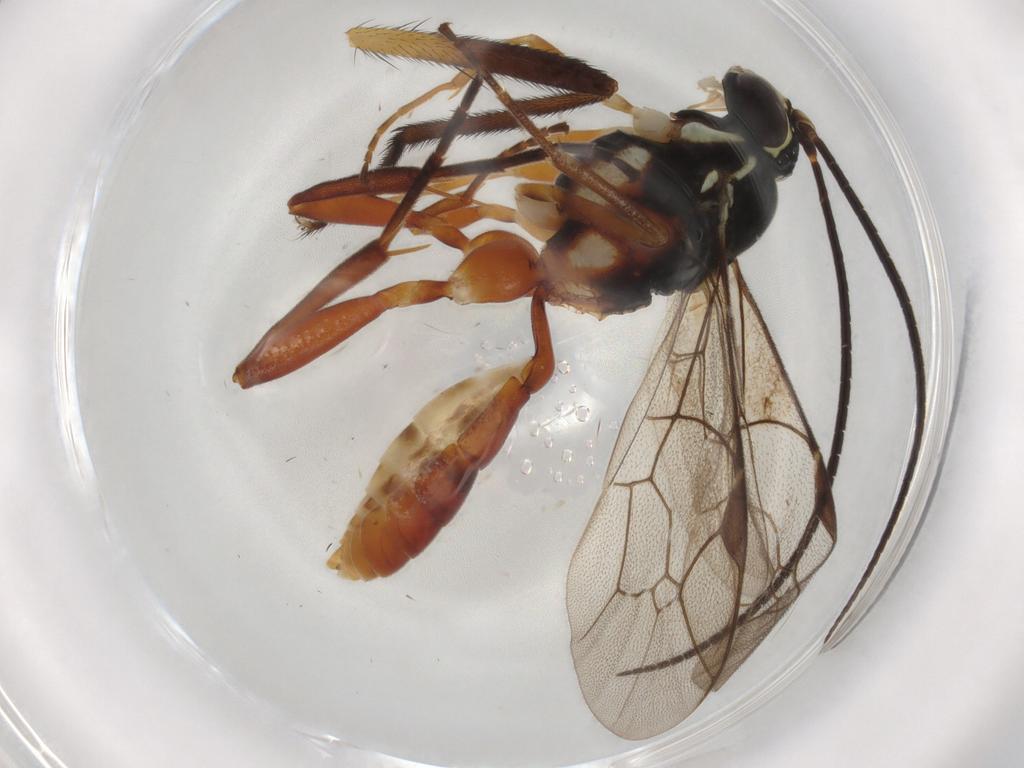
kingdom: Animalia
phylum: Arthropoda
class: Insecta
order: Hymenoptera
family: Ichneumonidae
